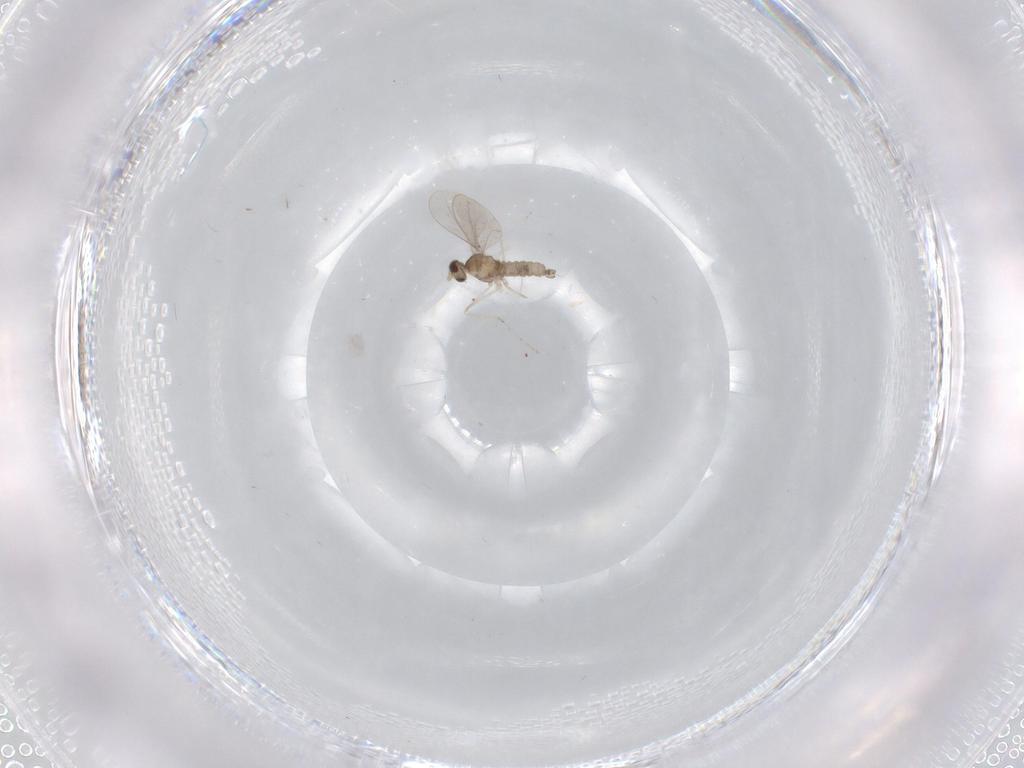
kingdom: Animalia
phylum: Arthropoda
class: Insecta
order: Diptera
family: Cecidomyiidae
